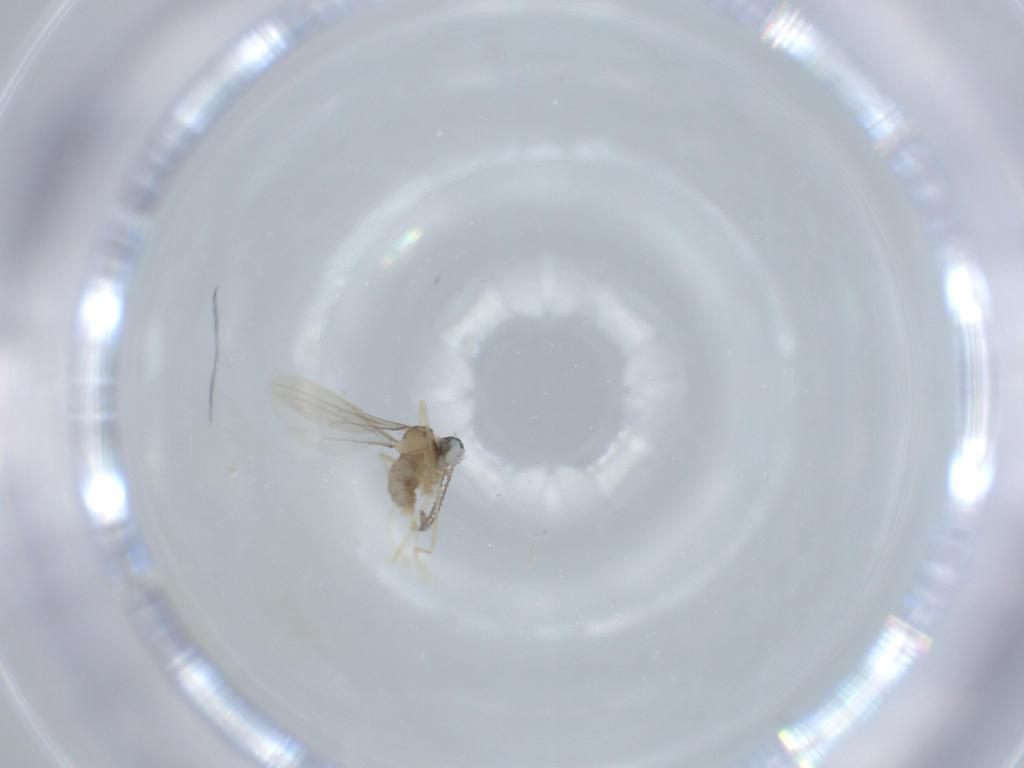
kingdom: Animalia
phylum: Arthropoda
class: Insecta
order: Diptera
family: Cecidomyiidae
